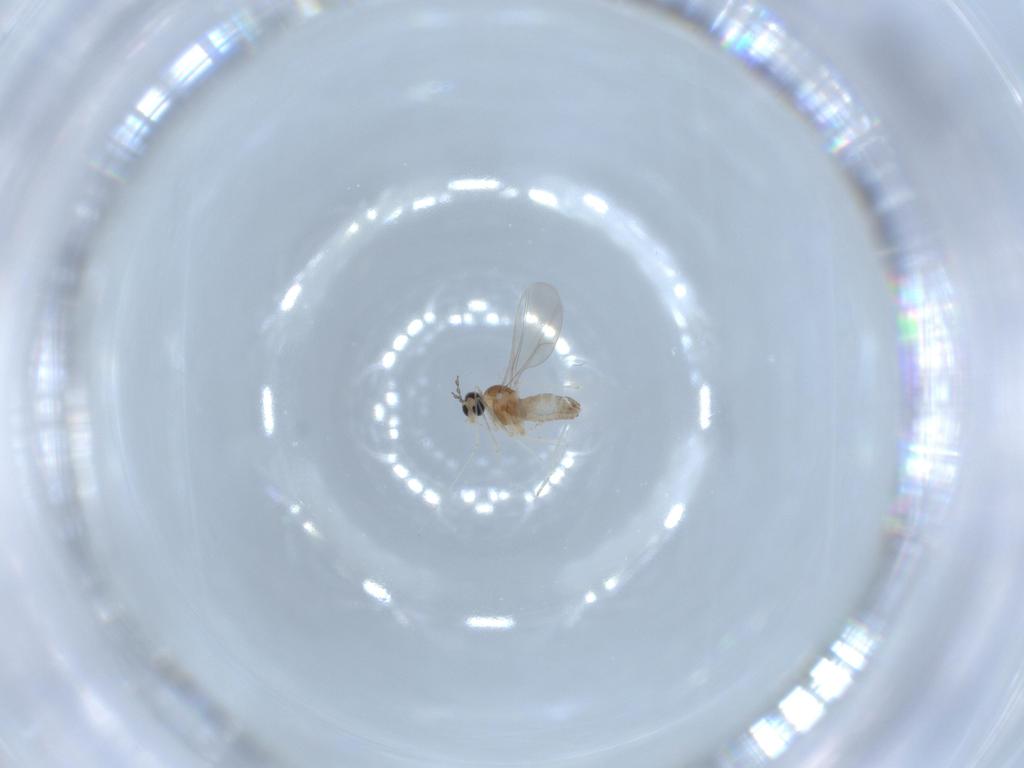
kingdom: Animalia
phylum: Arthropoda
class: Insecta
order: Diptera
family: Cecidomyiidae
